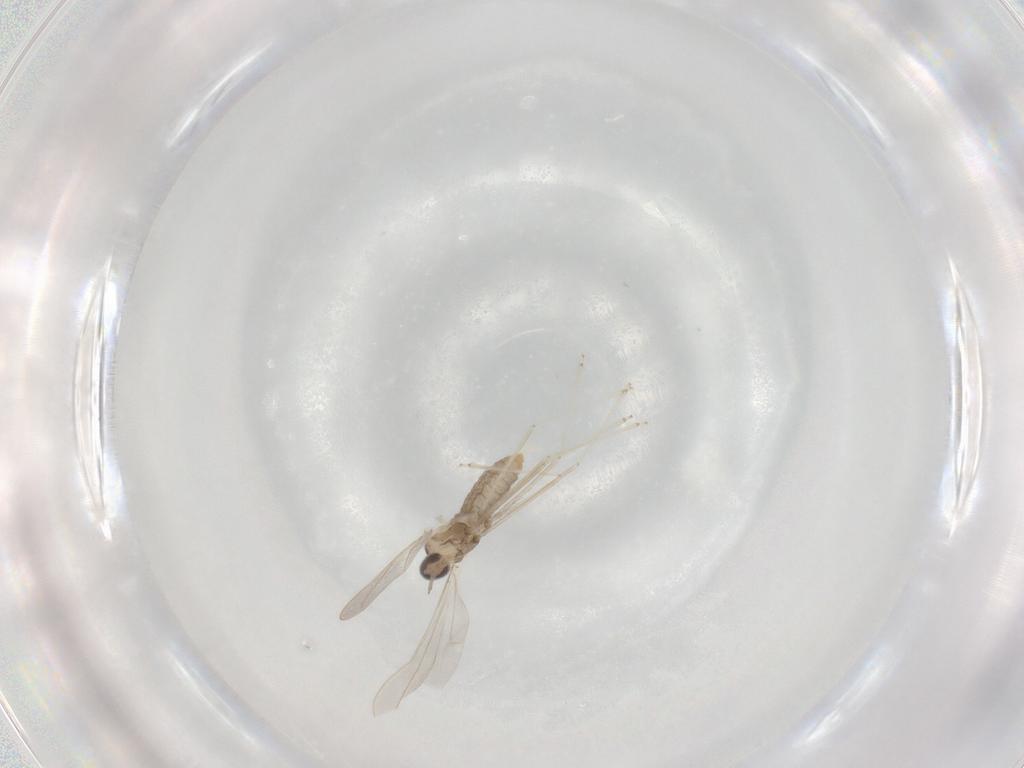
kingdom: Animalia
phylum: Arthropoda
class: Insecta
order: Diptera
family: Cecidomyiidae
